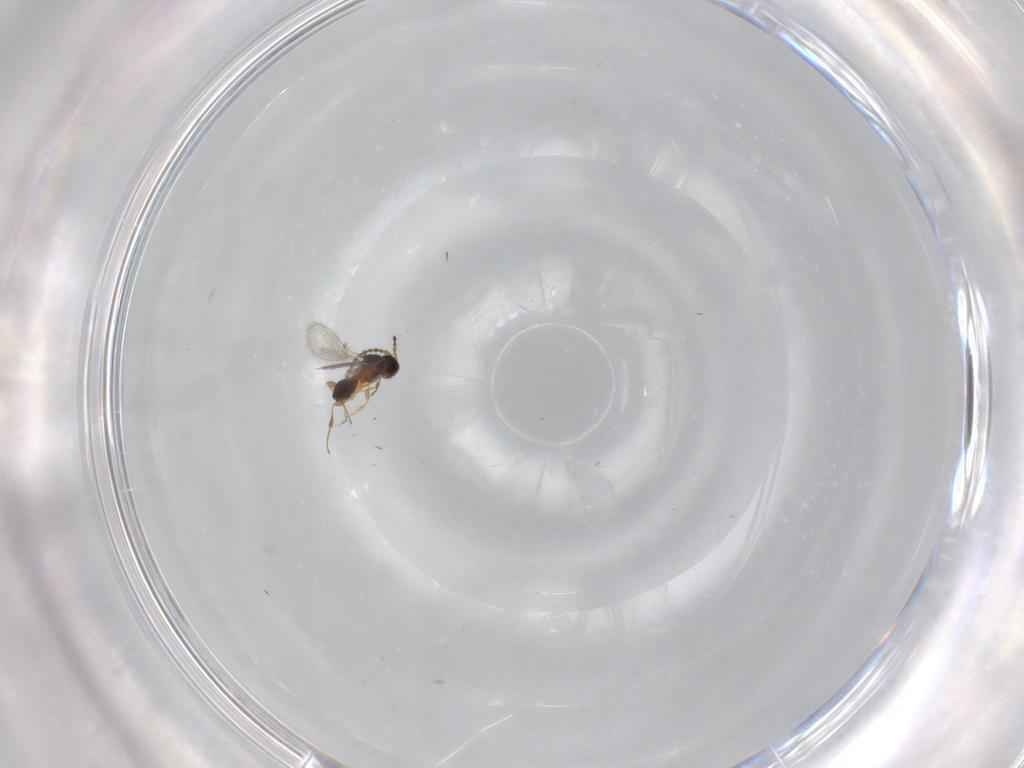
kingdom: Animalia
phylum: Arthropoda
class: Insecta
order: Hymenoptera
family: Diapriidae
